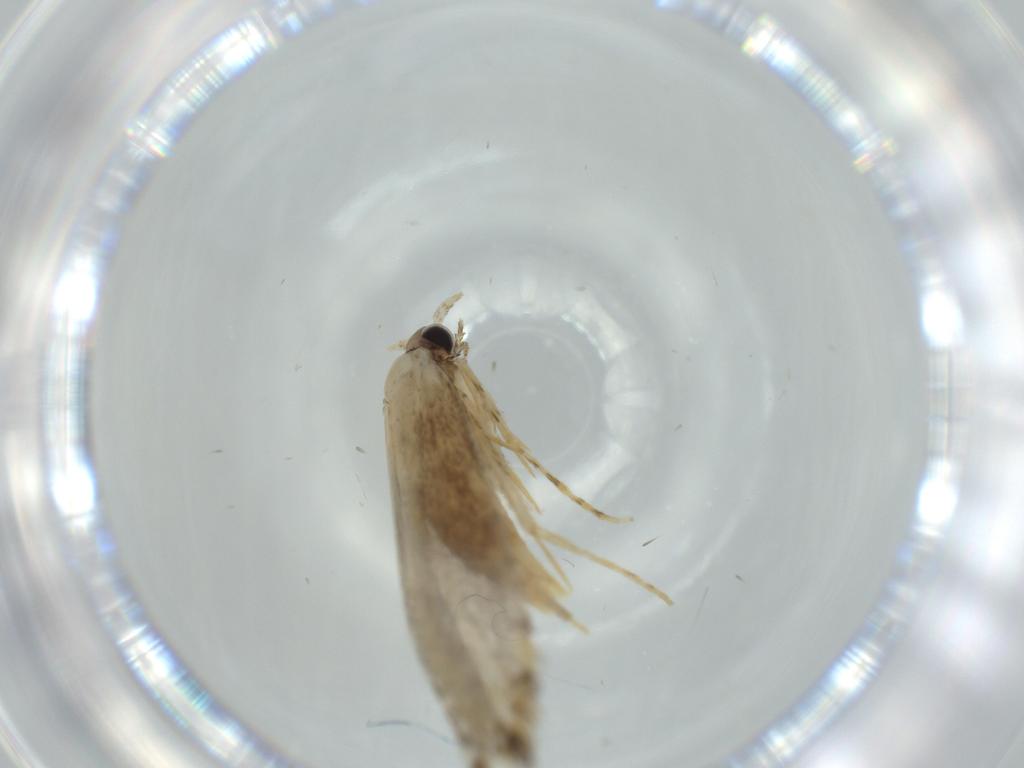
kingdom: Animalia
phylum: Arthropoda
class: Insecta
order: Lepidoptera
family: Tineidae
